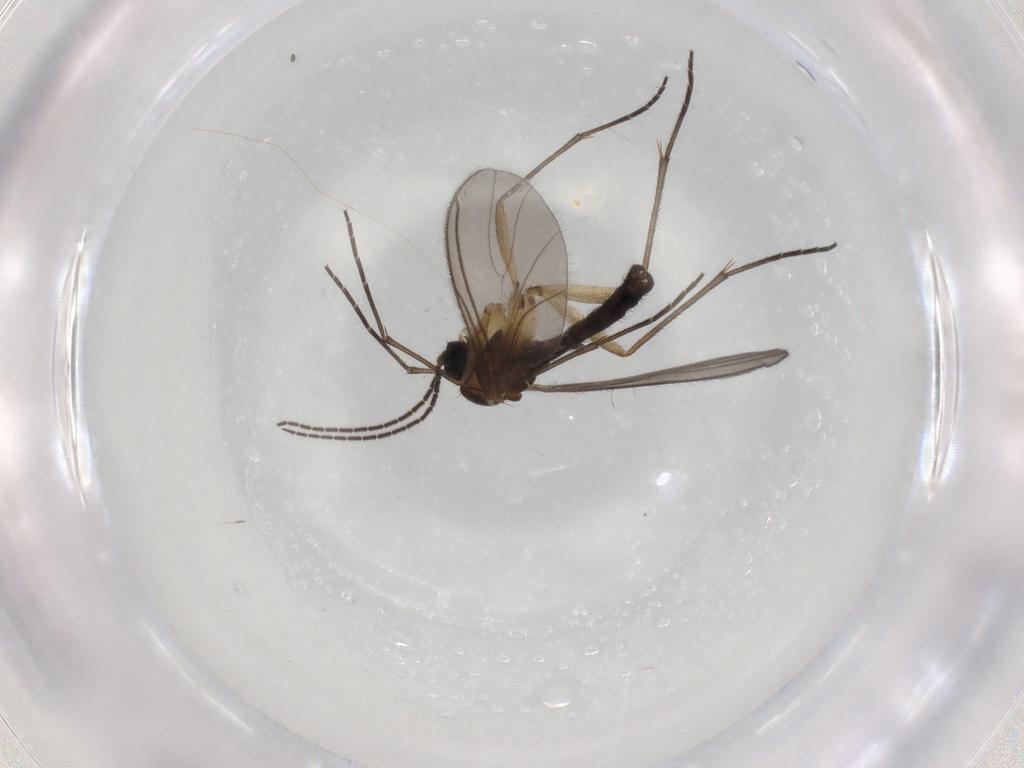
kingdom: Animalia
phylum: Arthropoda
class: Insecta
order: Diptera
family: Sciaridae
